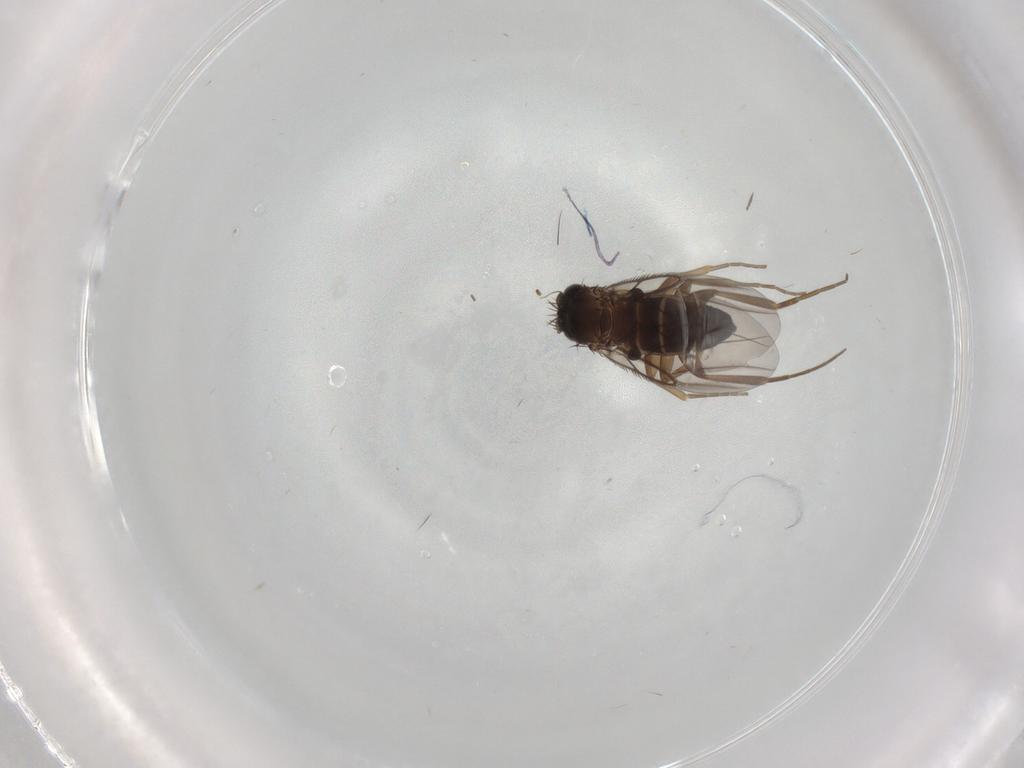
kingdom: Animalia
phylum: Arthropoda
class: Insecta
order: Diptera
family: Phoridae
